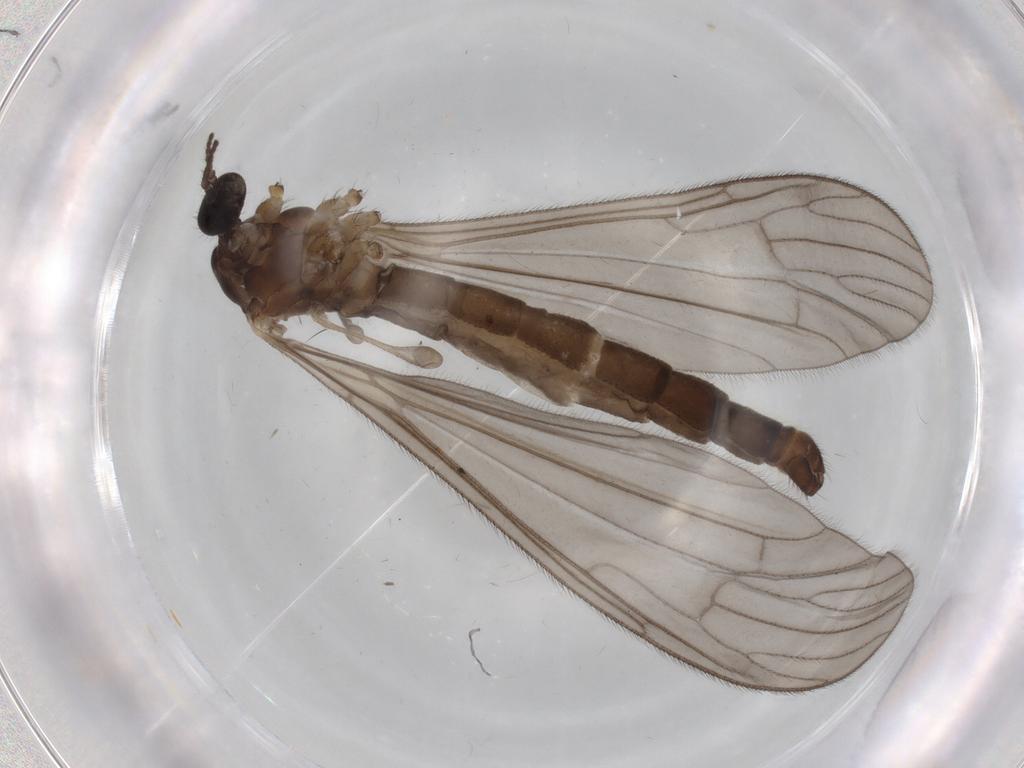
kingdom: Animalia
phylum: Arthropoda
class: Insecta
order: Diptera
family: Limoniidae
